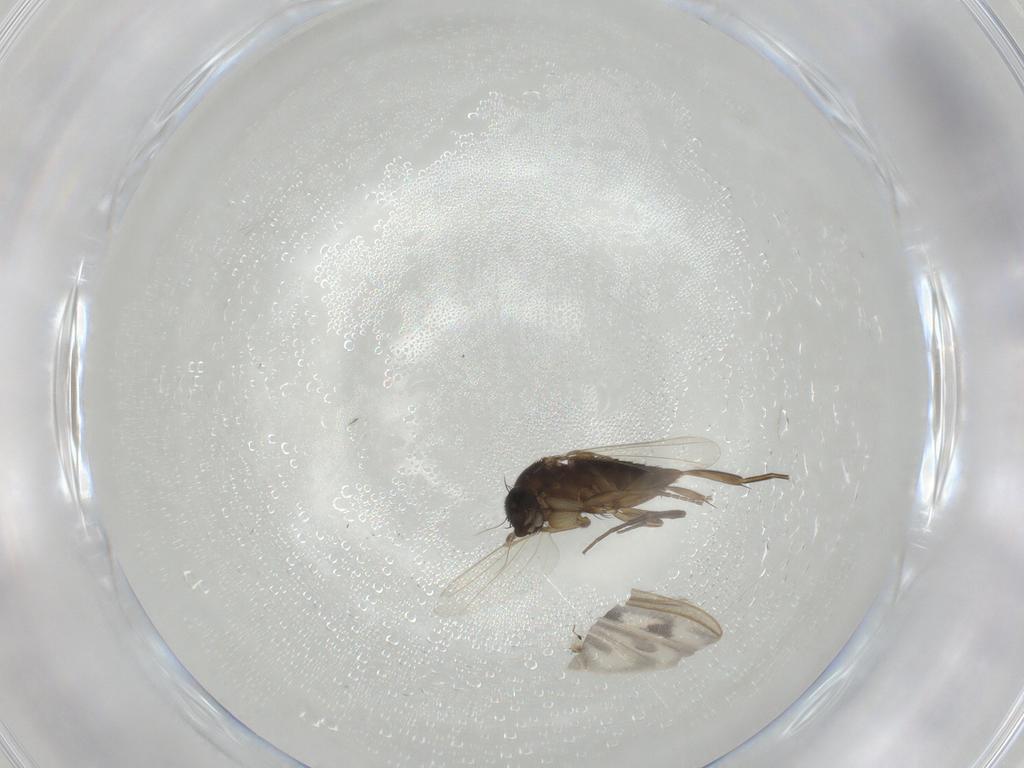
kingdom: Animalia
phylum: Arthropoda
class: Insecta
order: Diptera
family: Phoridae
